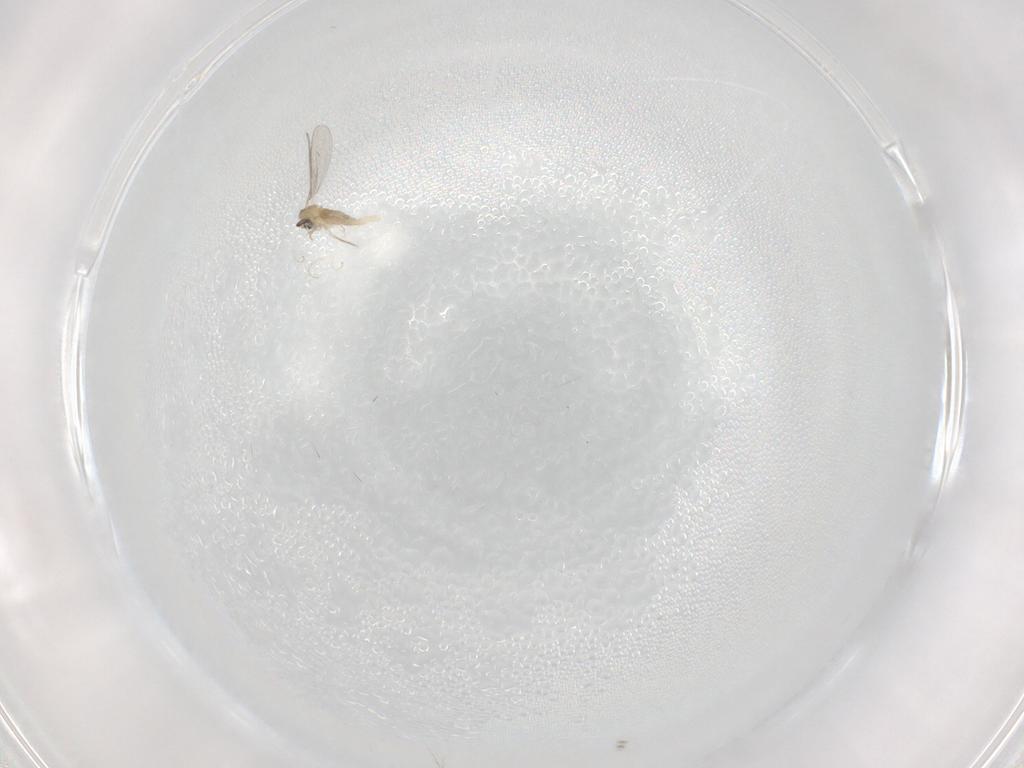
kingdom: Animalia
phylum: Arthropoda
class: Insecta
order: Diptera
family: Cecidomyiidae
